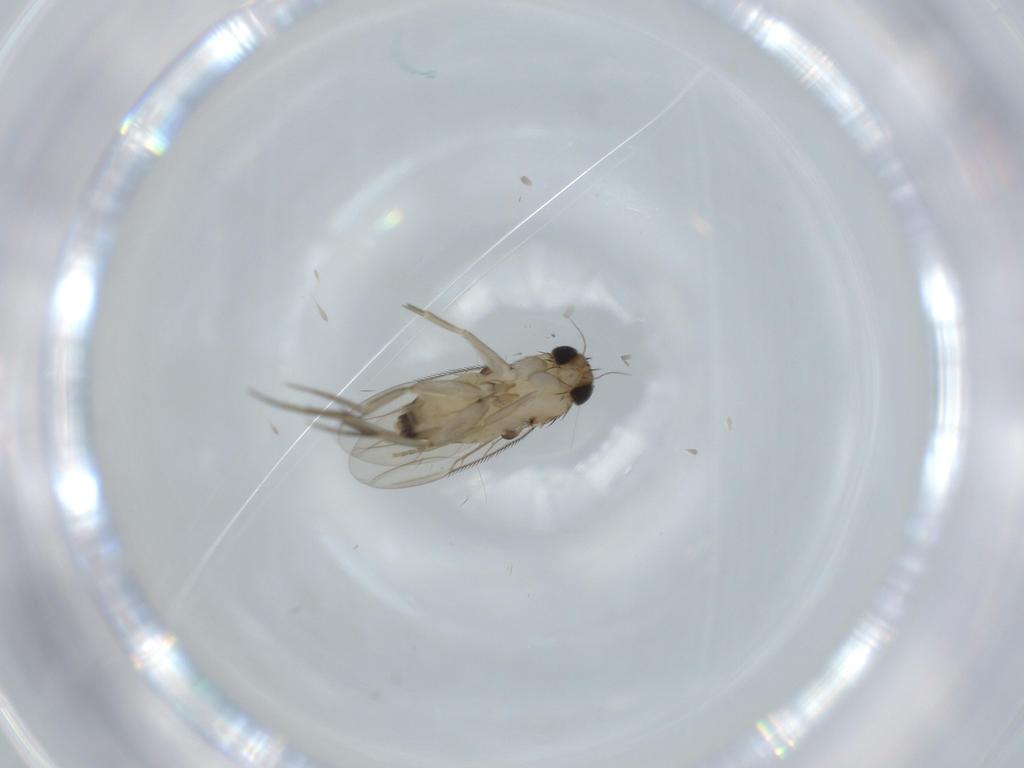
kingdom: Animalia
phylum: Arthropoda
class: Insecta
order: Diptera
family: Phoridae
